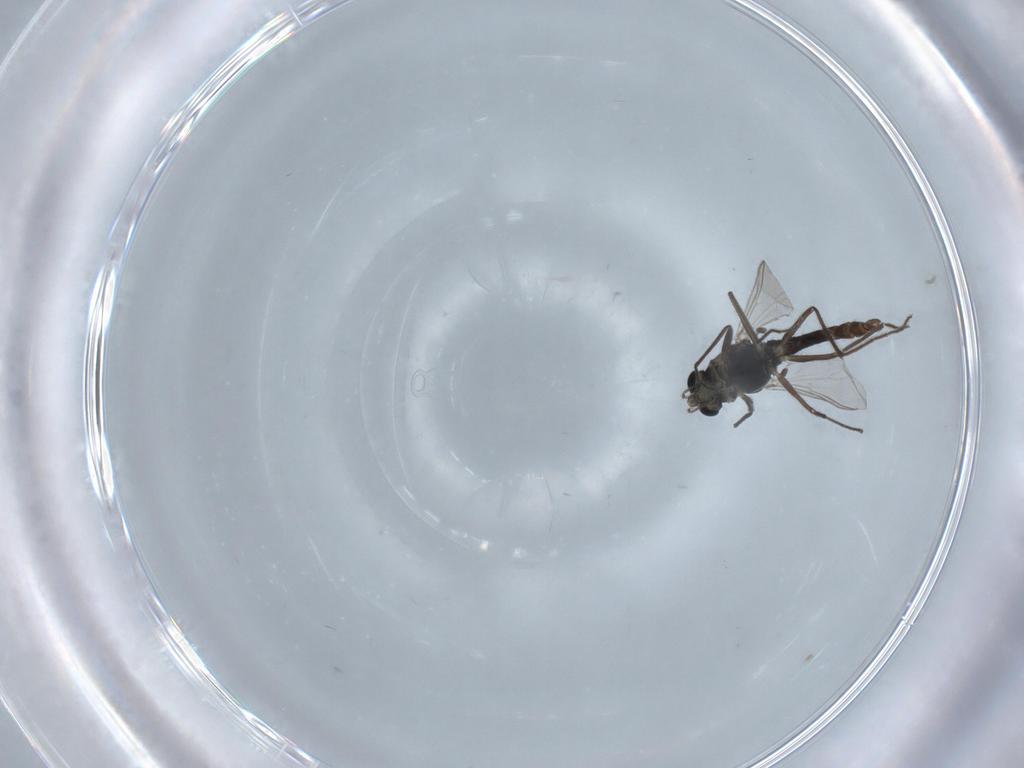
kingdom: Animalia
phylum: Arthropoda
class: Insecta
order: Diptera
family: Chironomidae
